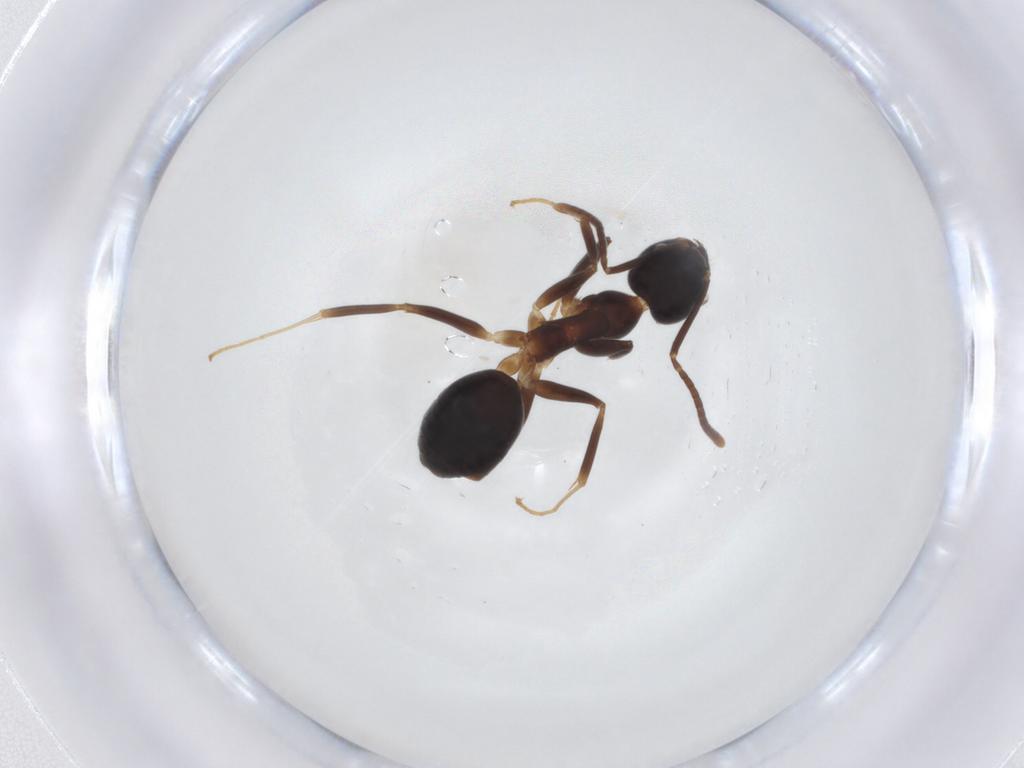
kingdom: Animalia
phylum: Arthropoda
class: Insecta
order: Hymenoptera
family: Formicidae
